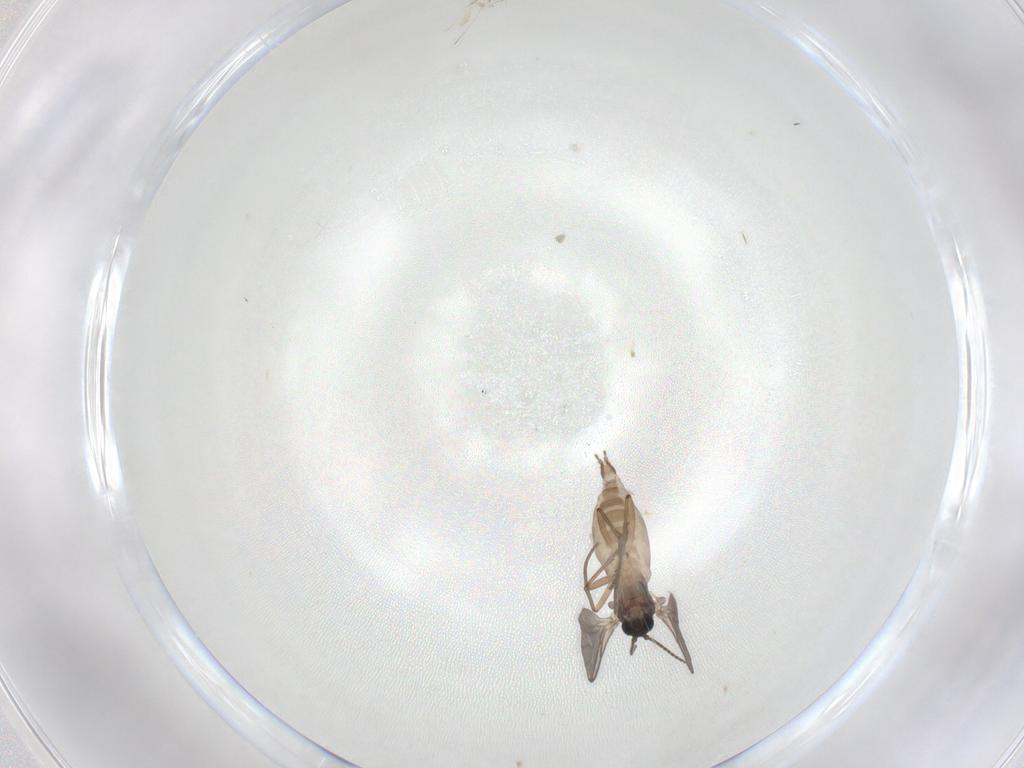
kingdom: Animalia
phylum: Arthropoda
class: Insecta
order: Diptera
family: Sciaridae
